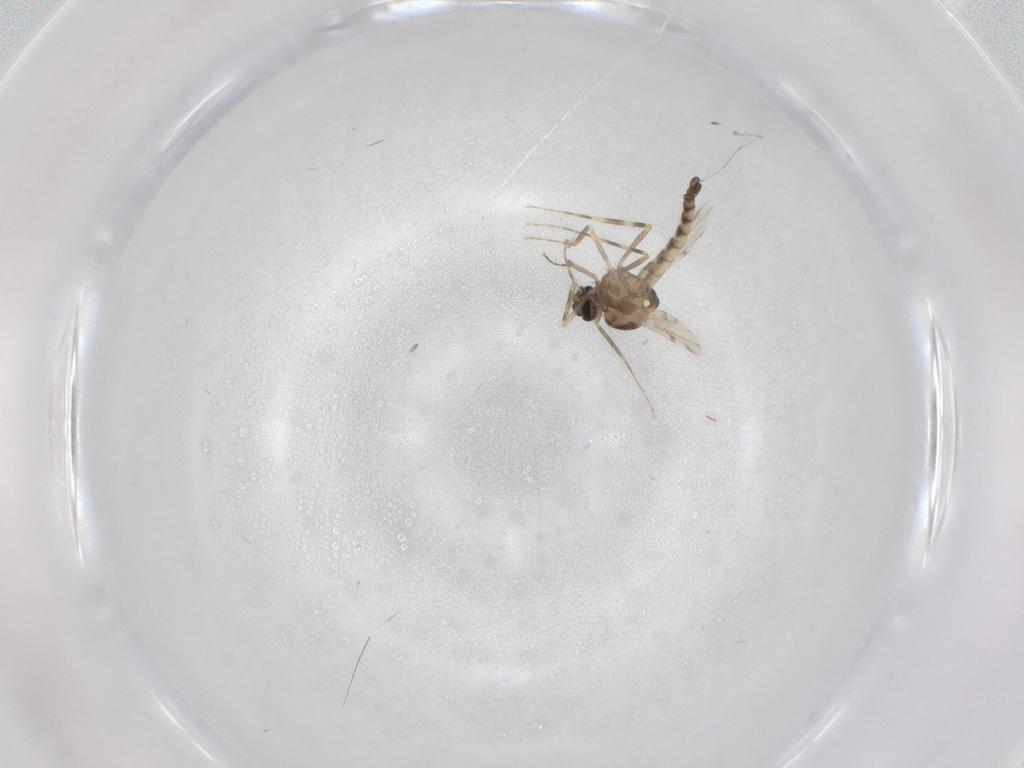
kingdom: Animalia
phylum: Arthropoda
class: Insecta
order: Diptera
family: Ceratopogonidae
